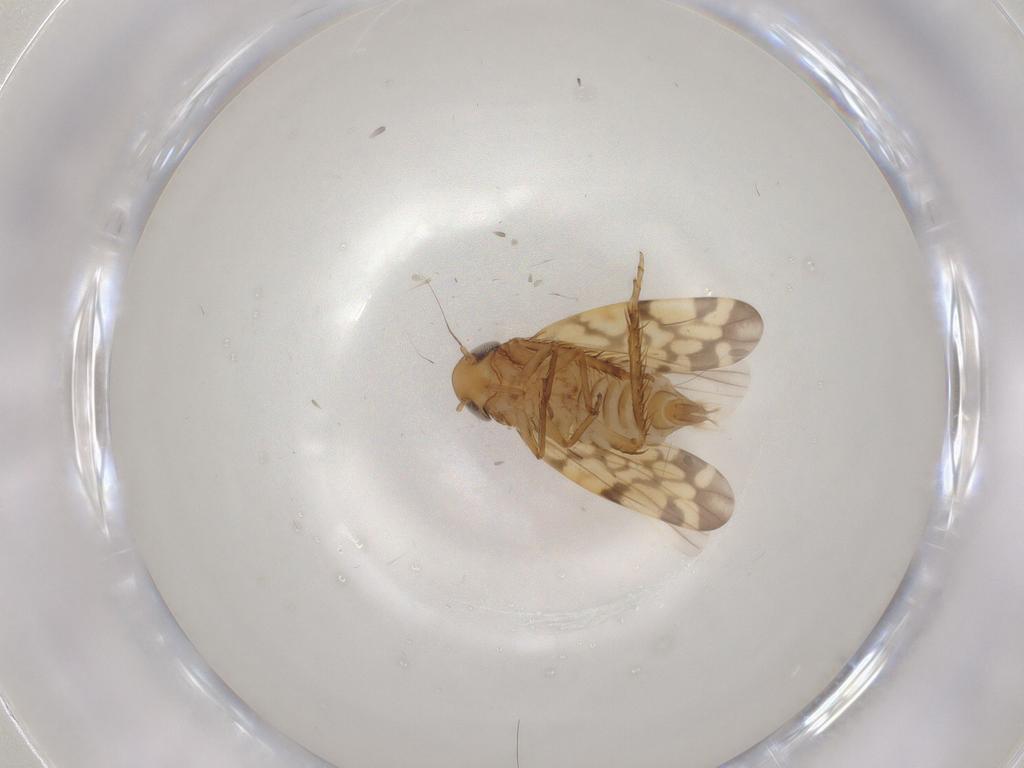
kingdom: Animalia
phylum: Arthropoda
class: Insecta
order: Hemiptera
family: Cicadellidae
